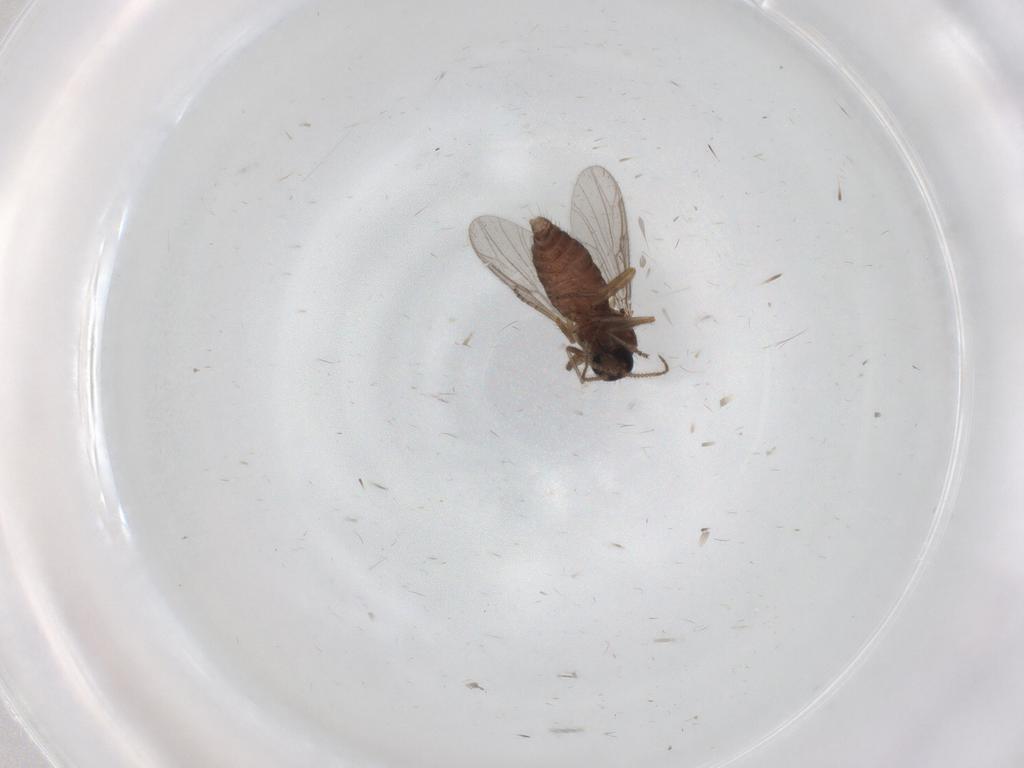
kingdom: Animalia
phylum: Arthropoda
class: Insecta
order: Diptera
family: Ceratopogonidae
